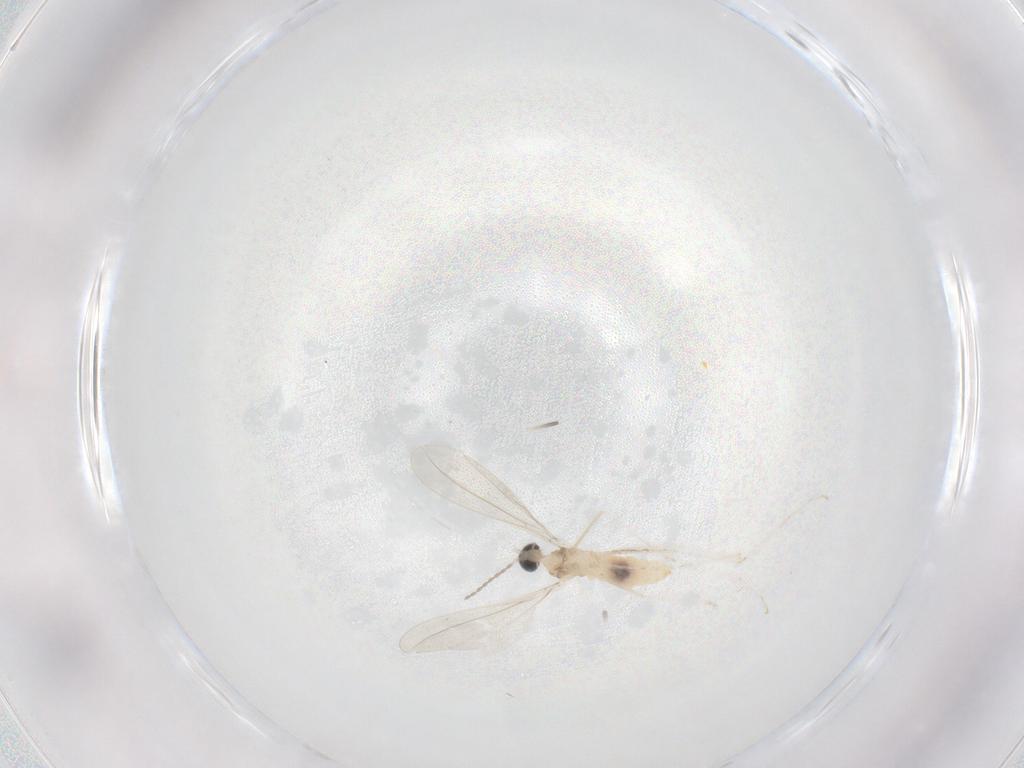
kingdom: Animalia
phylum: Arthropoda
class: Insecta
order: Diptera
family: Cecidomyiidae
